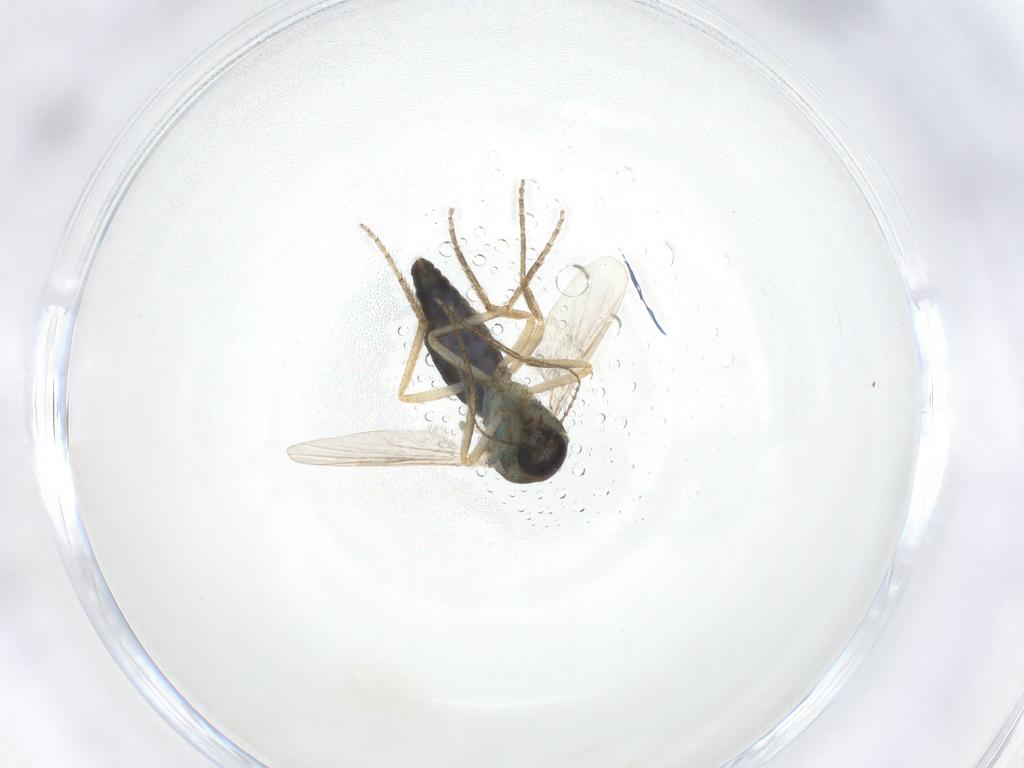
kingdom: Animalia
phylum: Arthropoda
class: Insecta
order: Diptera
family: Ceratopogonidae
